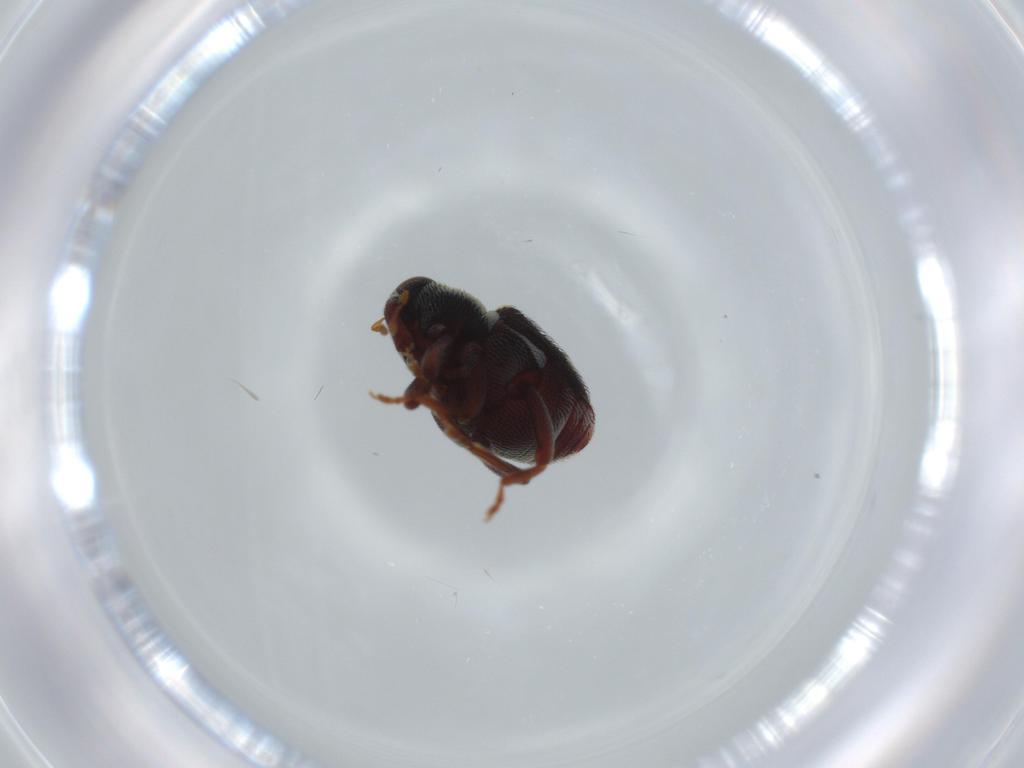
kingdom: Animalia
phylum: Arthropoda
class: Insecta
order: Coleoptera
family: Curculionidae
